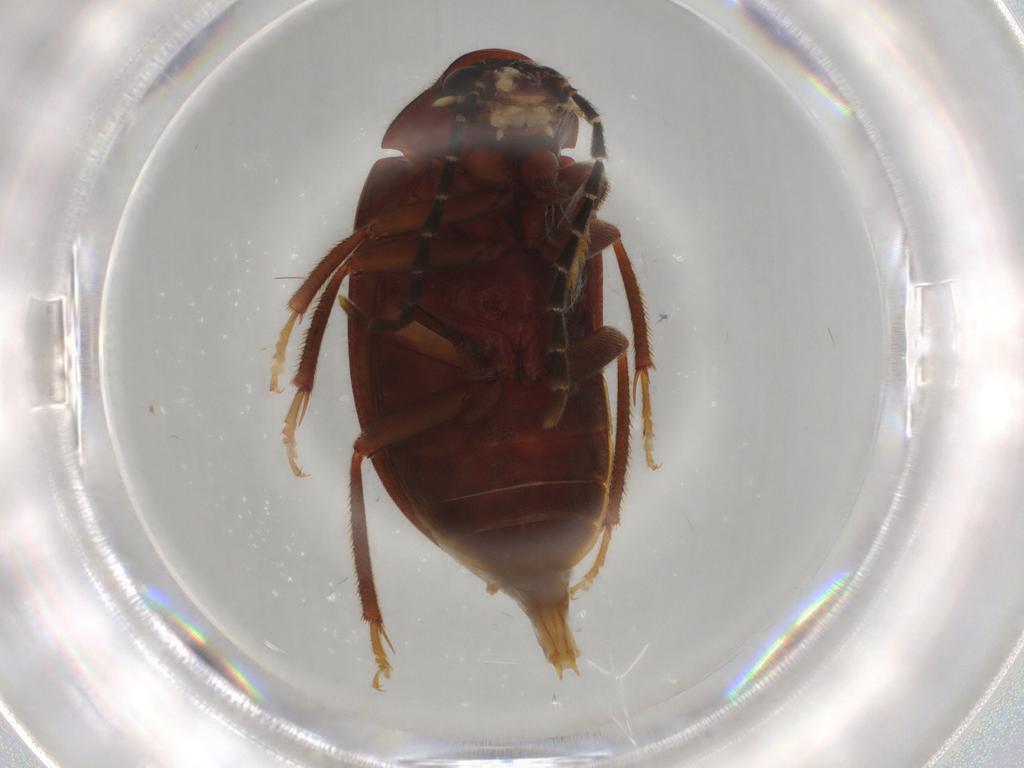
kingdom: Animalia
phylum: Arthropoda
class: Insecta
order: Coleoptera
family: Ptilodactylidae
